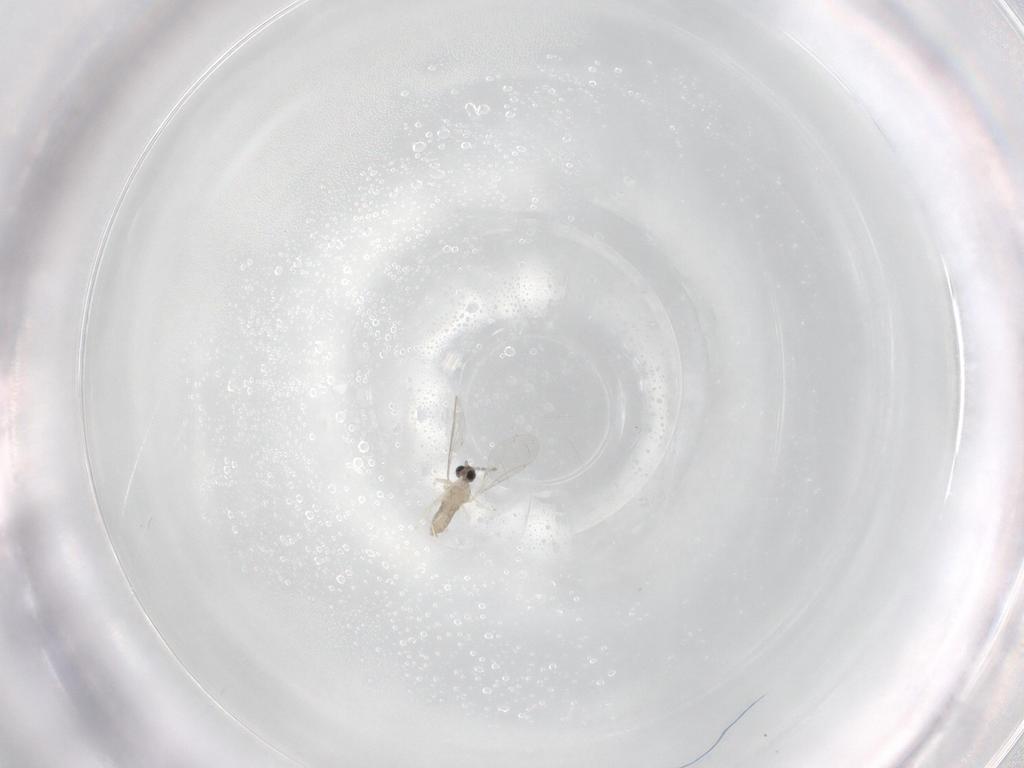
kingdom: Animalia
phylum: Arthropoda
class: Insecta
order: Diptera
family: Cecidomyiidae
